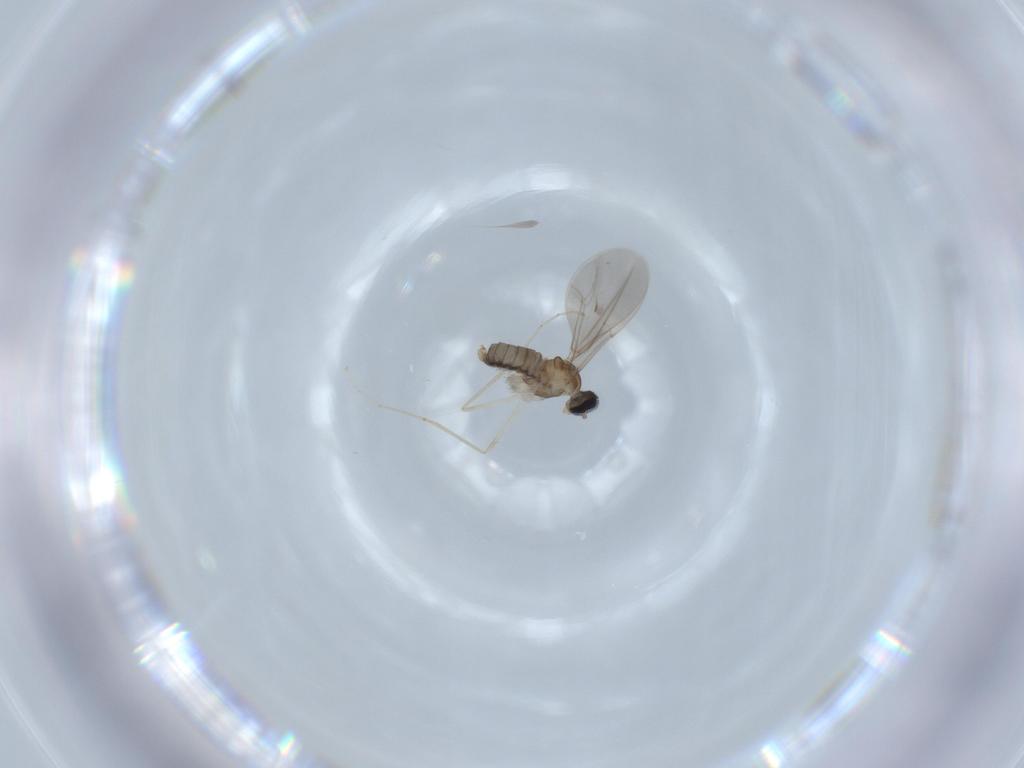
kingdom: Animalia
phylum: Arthropoda
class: Insecta
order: Diptera
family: Cecidomyiidae
